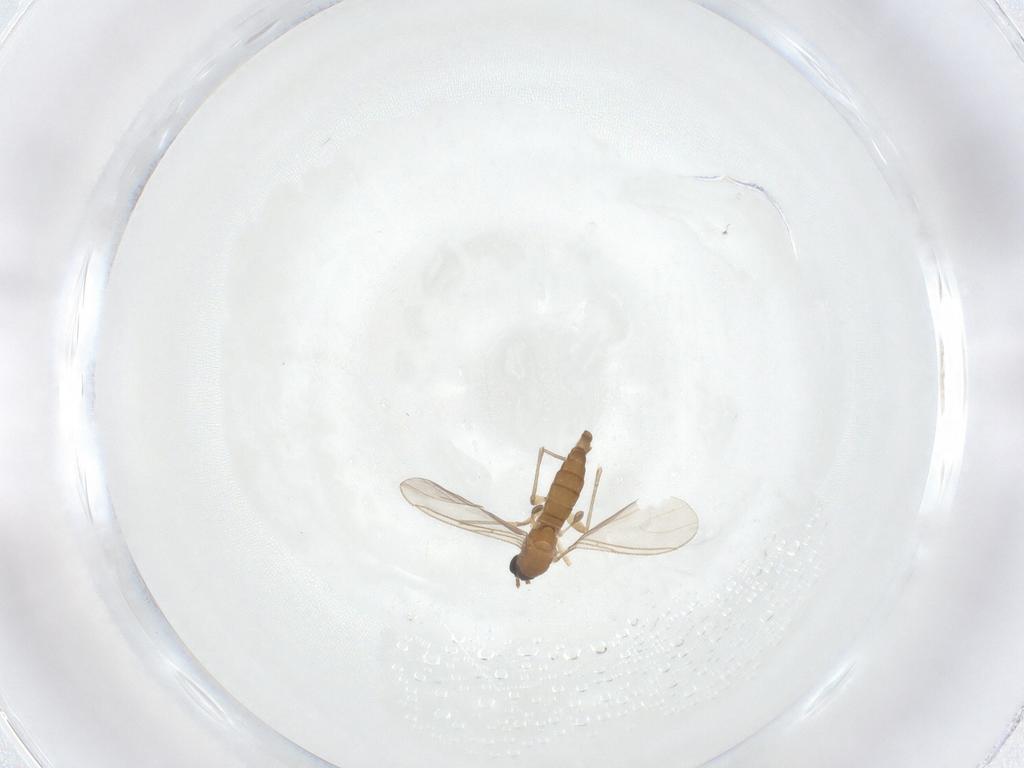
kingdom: Animalia
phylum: Arthropoda
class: Insecta
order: Diptera
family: Sciaridae
